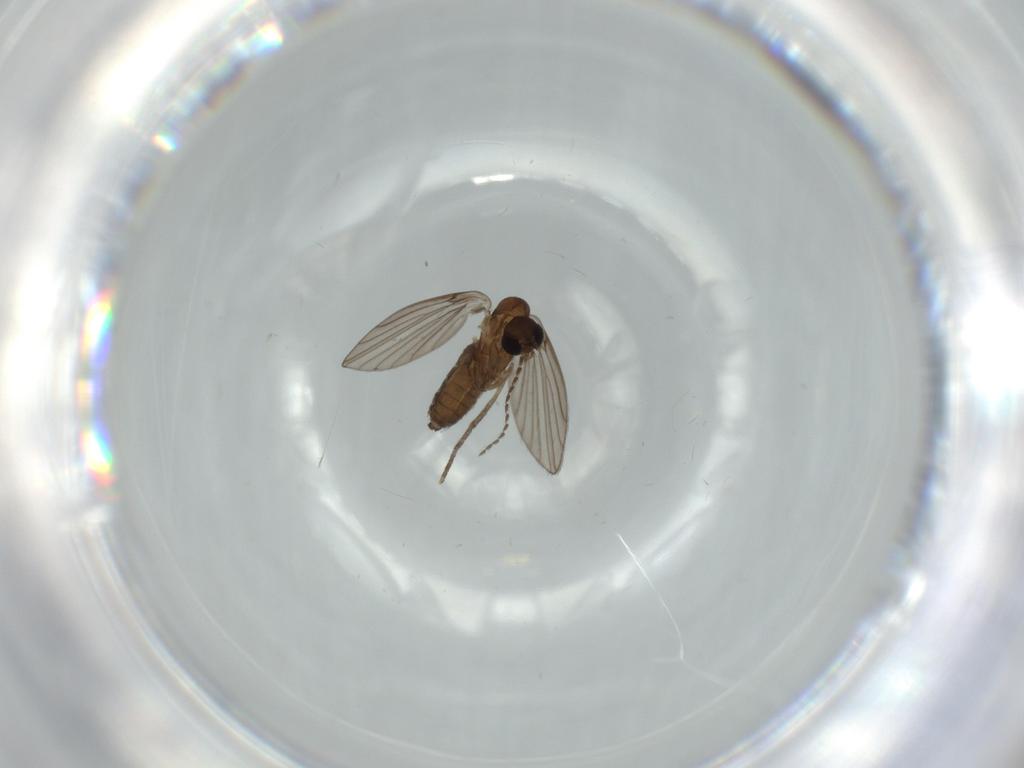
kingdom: Animalia
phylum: Arthropoda
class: Insecta
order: Diptera
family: Psychodidae
